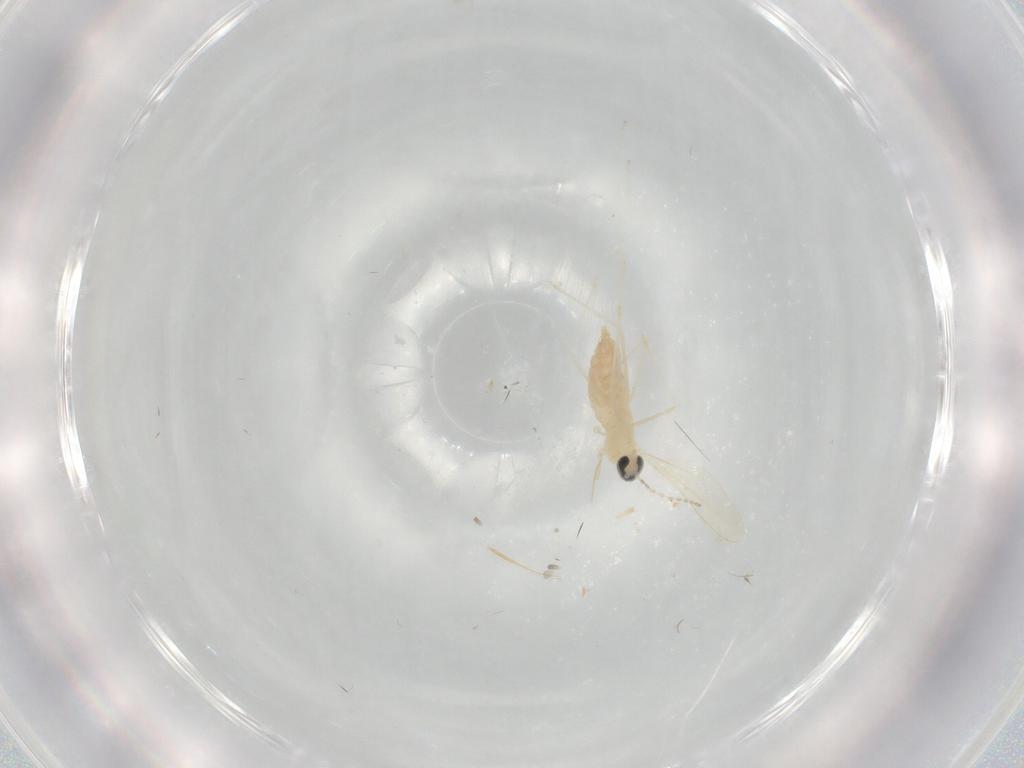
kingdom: Animalia
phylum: Arthropoda
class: Insecta
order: Diptera
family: Cecidomyiidae
